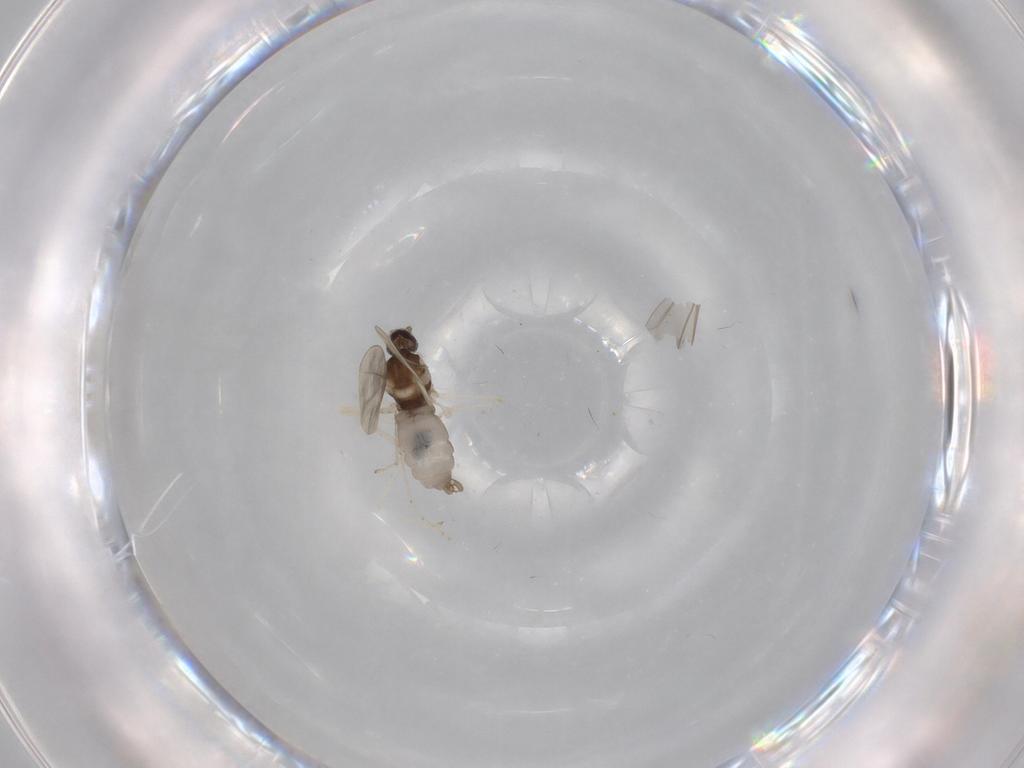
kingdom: Animalia
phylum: Arthropoda
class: Insecta
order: Diptera
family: Cecidomyiidae
